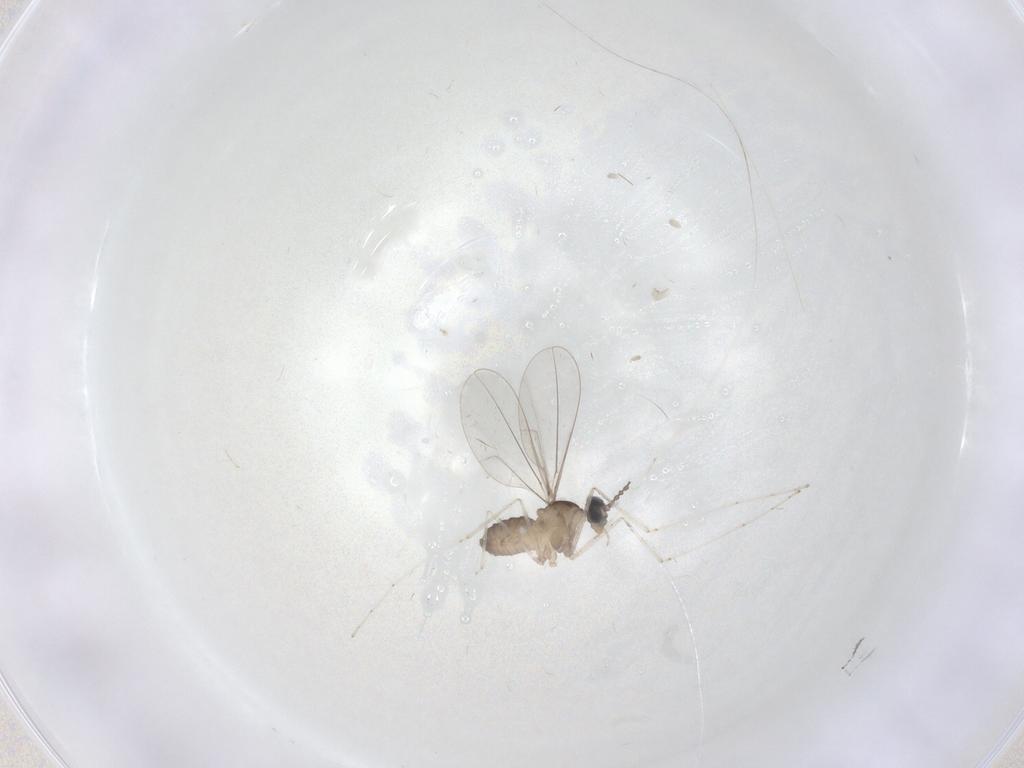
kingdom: Animalia
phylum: Arthropoda
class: Insecta
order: Diptera
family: Cecidomyiidae
